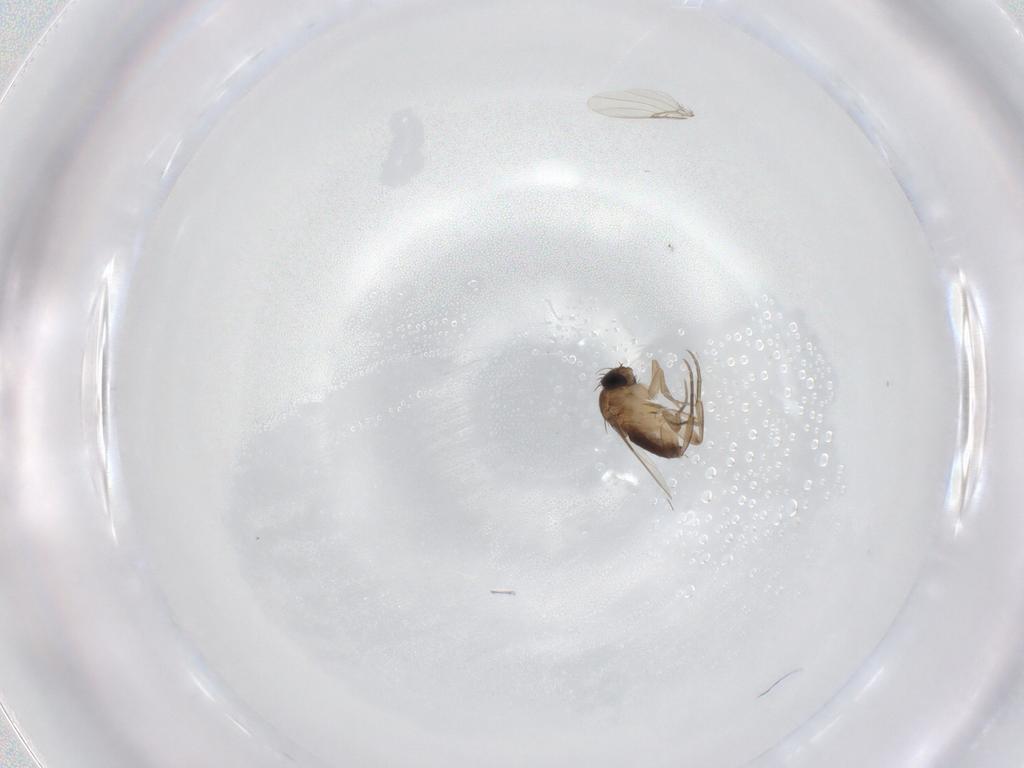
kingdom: Animalia
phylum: Arthropoda
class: Insecta
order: Diptera
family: Phoridae
